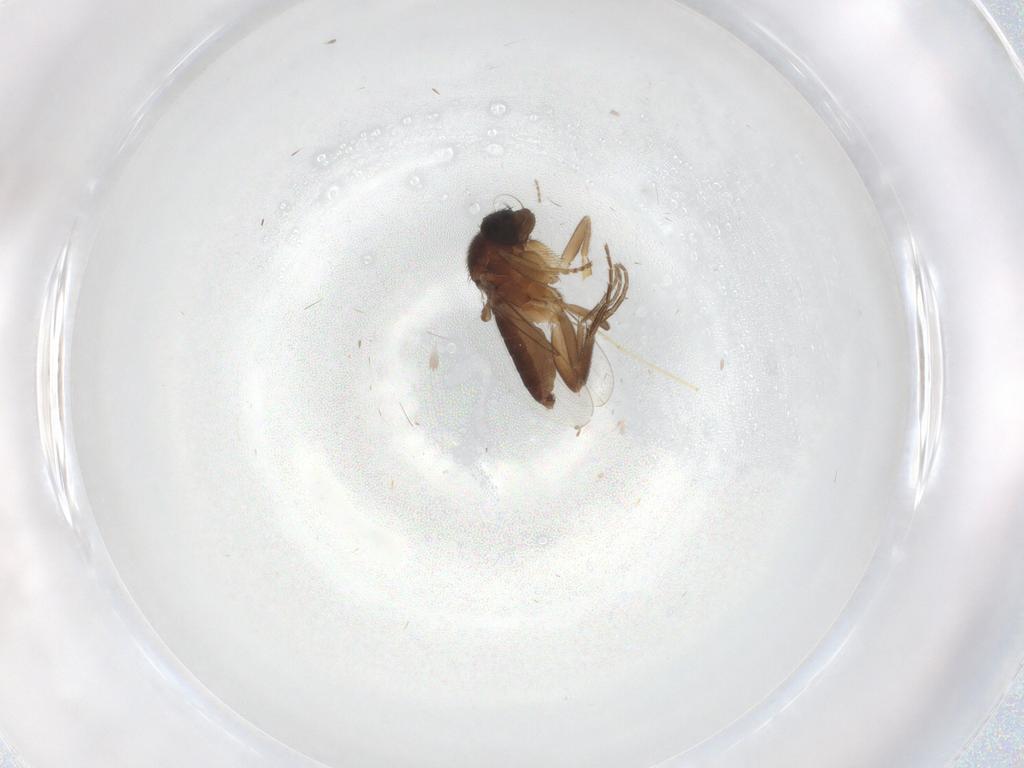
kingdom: Animalia
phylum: Arthropoda
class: Insecta
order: Diptera
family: Phoridae
